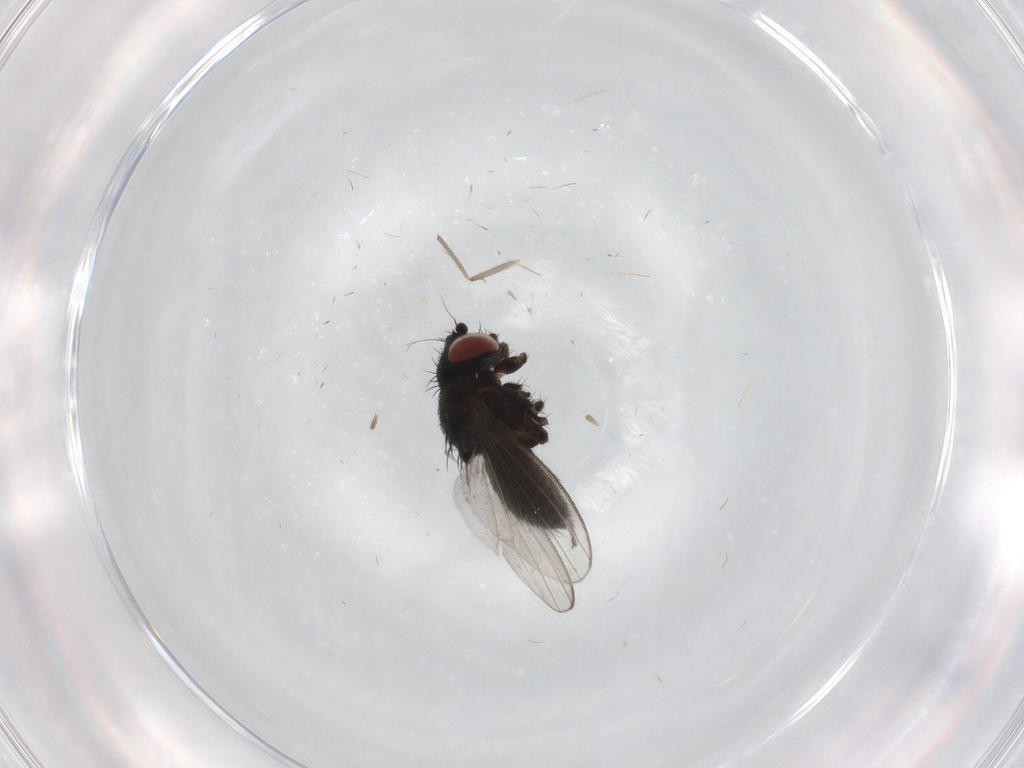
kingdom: Animalia
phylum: Arthropoda
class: Insecta
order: Diptera
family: Milichiidae
